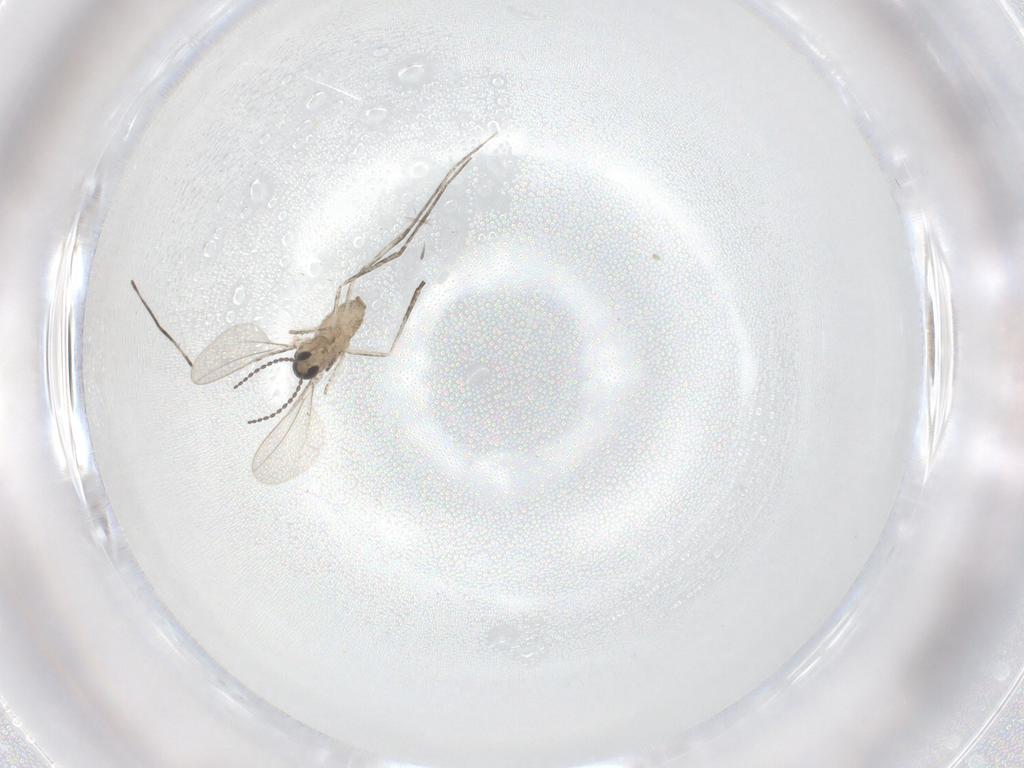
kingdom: Animalia
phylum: Arthropoda
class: Insecta
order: Diptera
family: Cecidomyiidae
